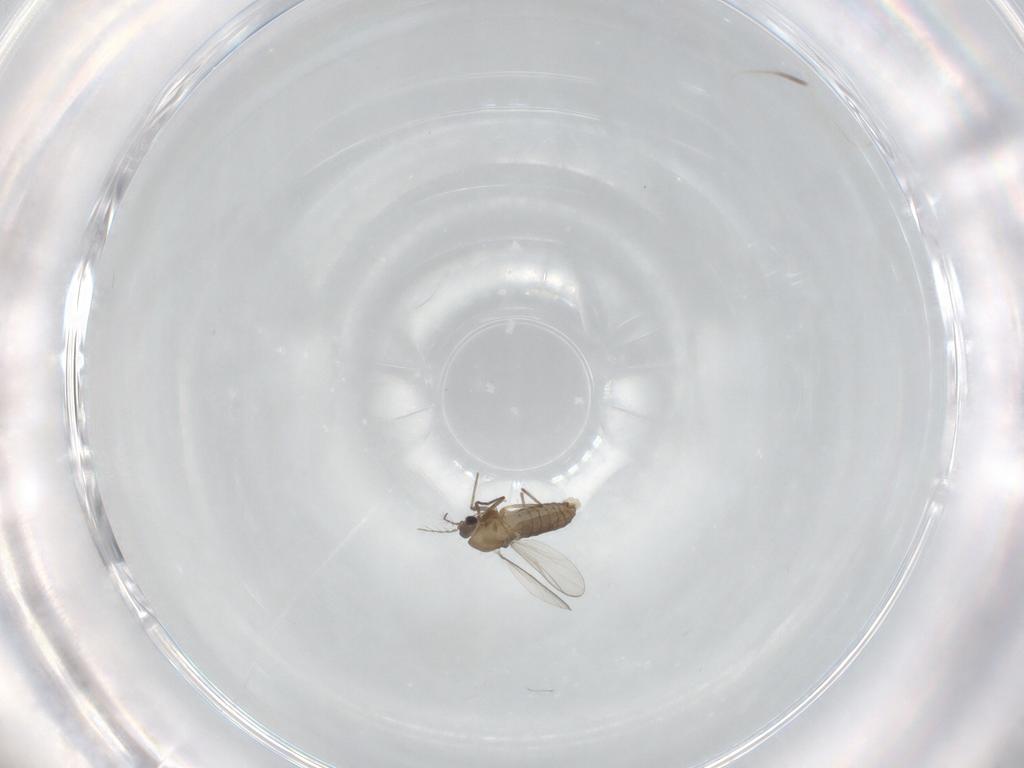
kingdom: Animalia
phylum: Arthropoda
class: Insecta
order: Diptera
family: Chironomidae
